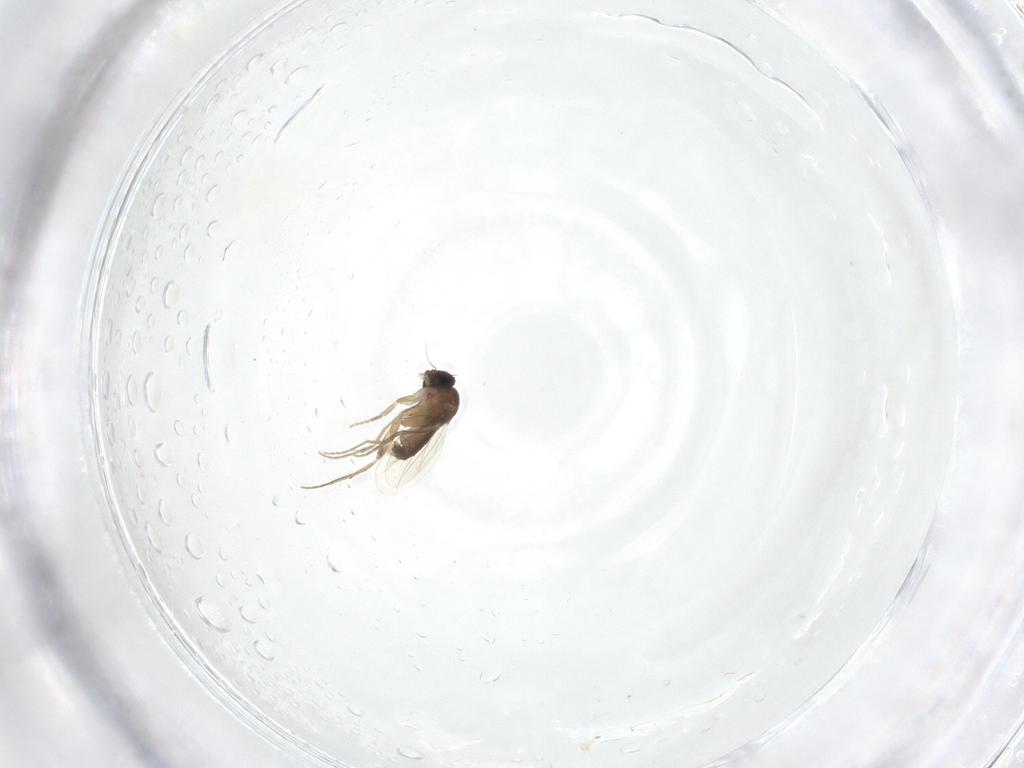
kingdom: Animalia
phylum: Arthropoda
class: Insecta
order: Diptera
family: Phoridae
